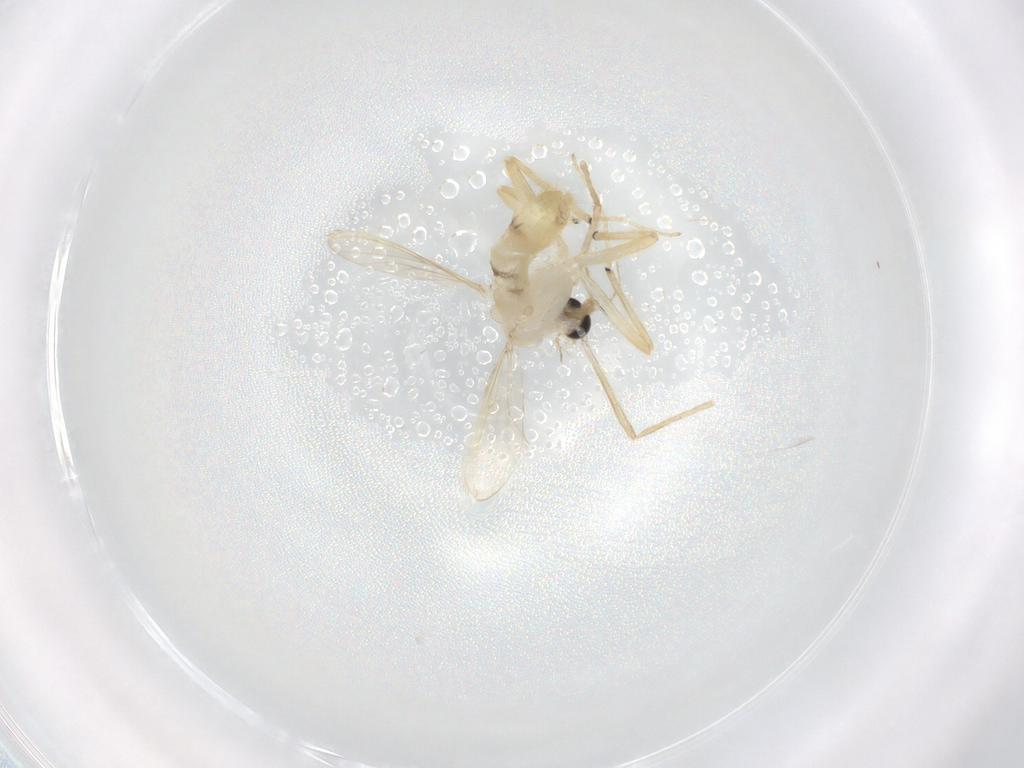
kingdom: Animalia
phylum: Arthropoda
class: Insecta
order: Diptera
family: Chironomidae
